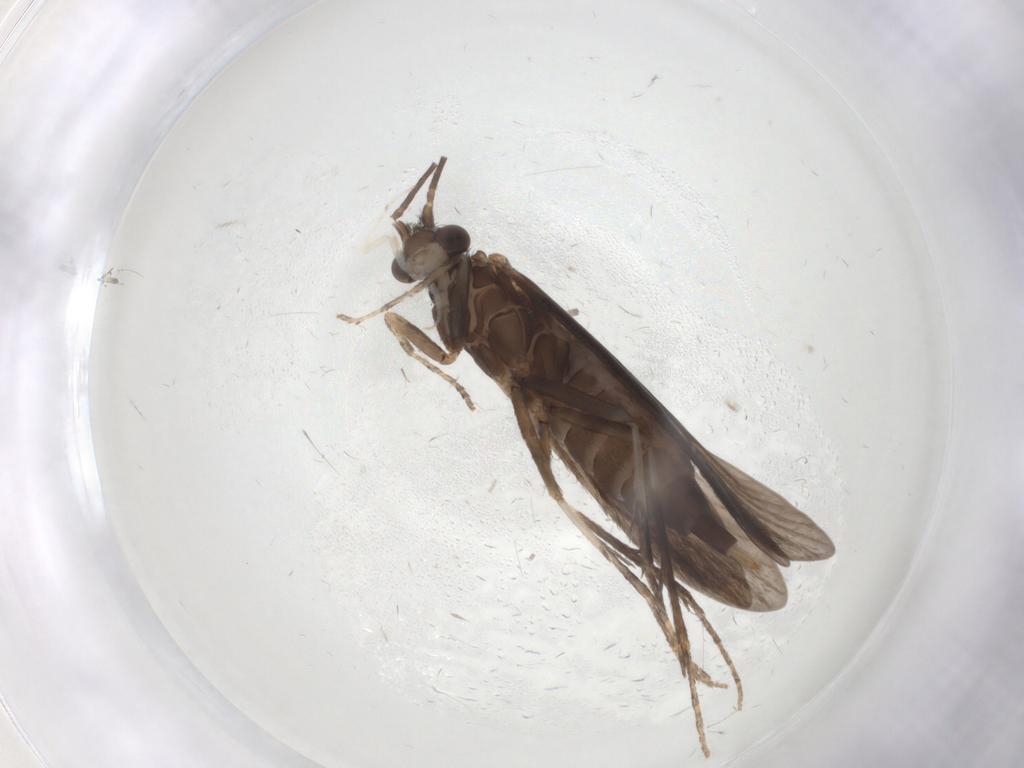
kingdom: Animalia
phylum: Arthropoda
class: Insecta
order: Trichoptera
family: Xiphocentronidae
